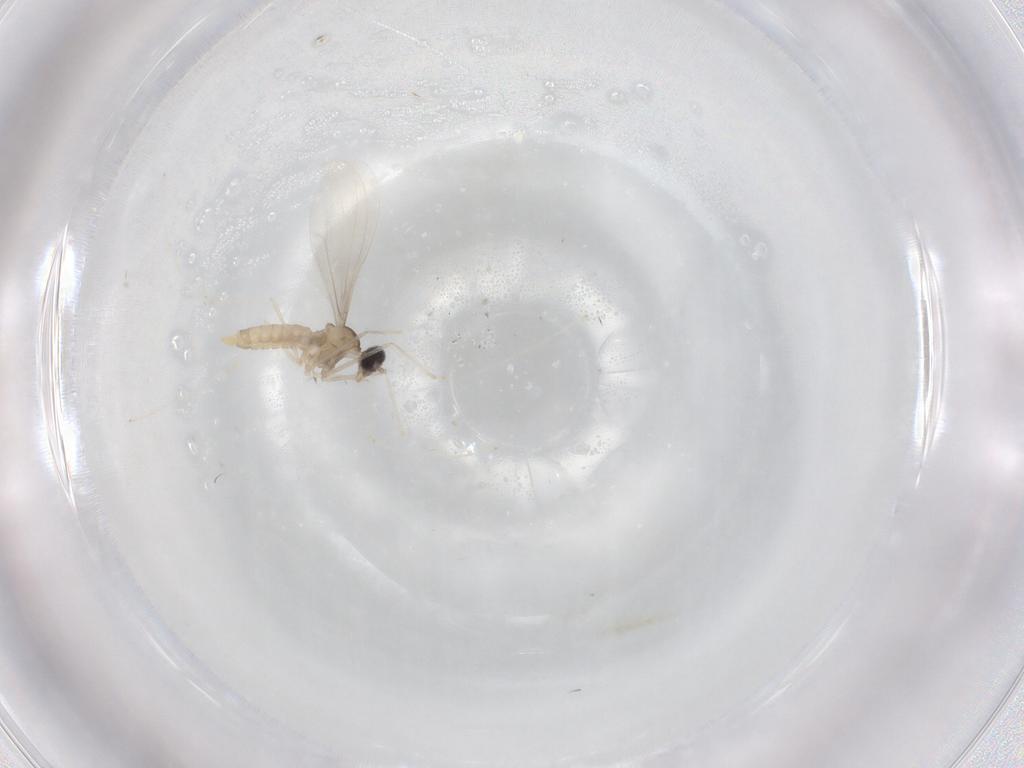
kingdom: Animalia
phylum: Arthropoda
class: Insecta
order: Diptera
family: Cecidomyiidae
